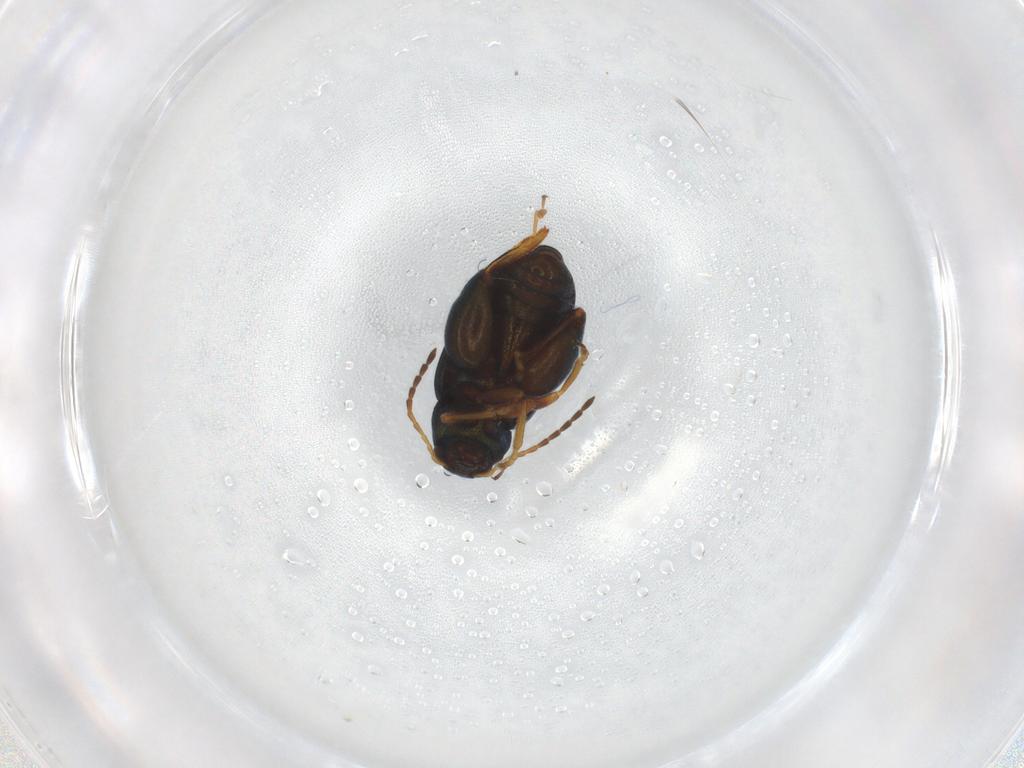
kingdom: Animalia
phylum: Arthropoda
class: Insecta
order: Coleoptera
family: Chrysomelidae
